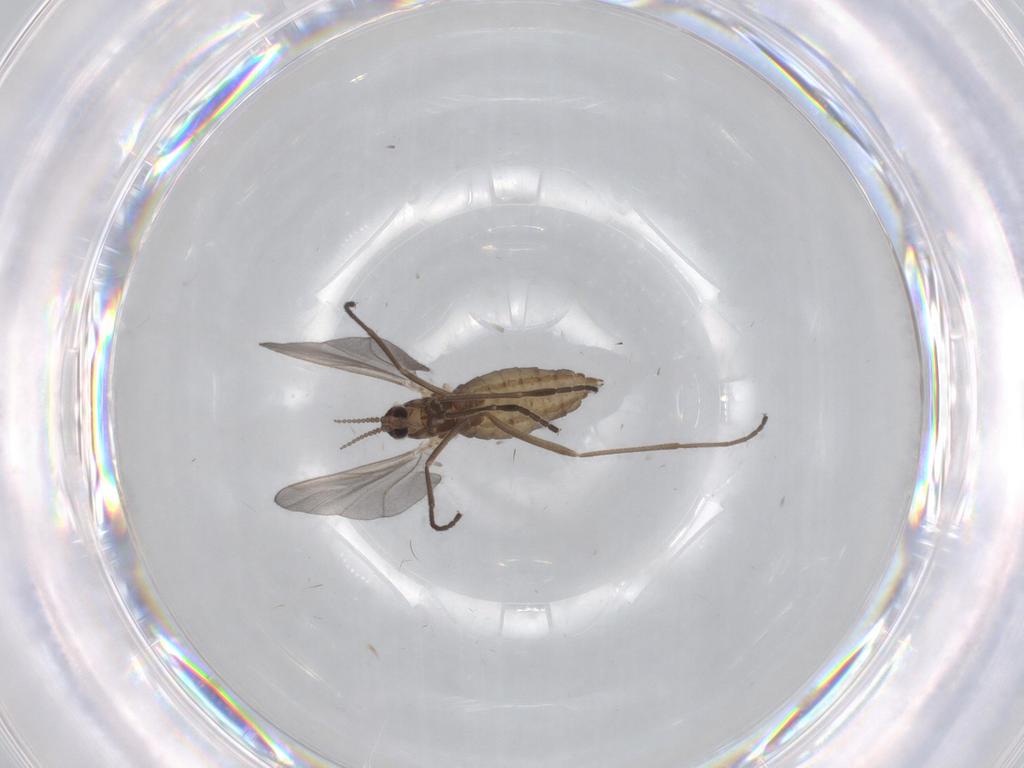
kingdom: Animalia
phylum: Arthropoda
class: Insecta
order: Diptera
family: Cecidomyiidae
